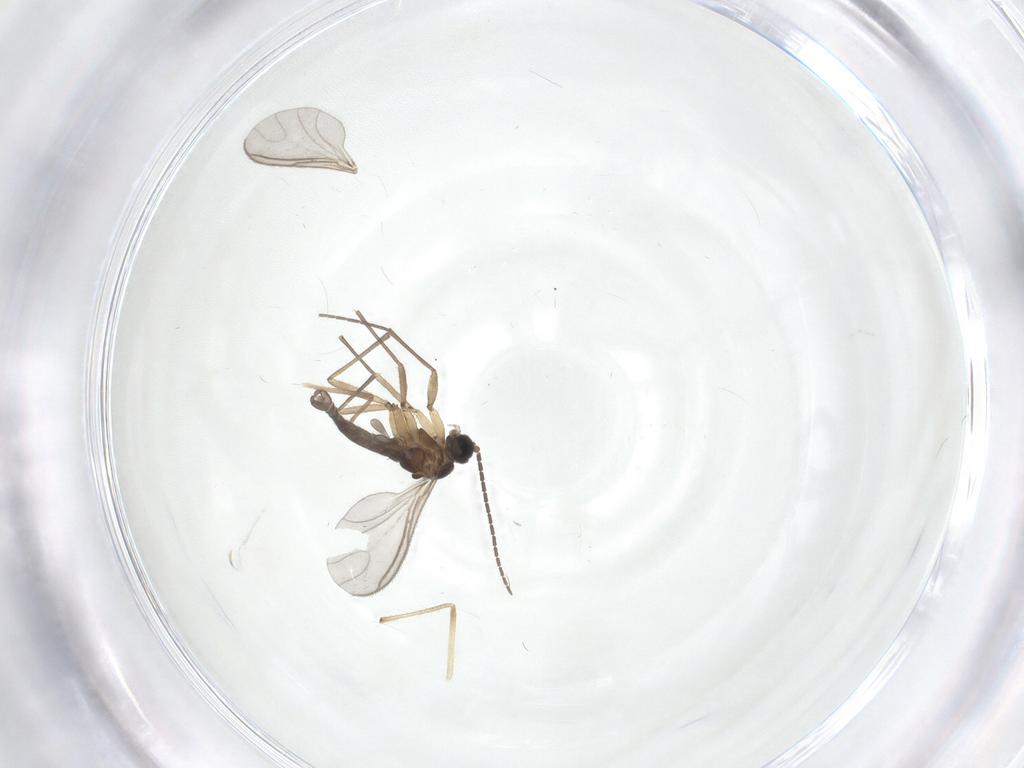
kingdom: Animalia
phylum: Arthropoda
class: Insecta
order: Diptera
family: Sciaridae
